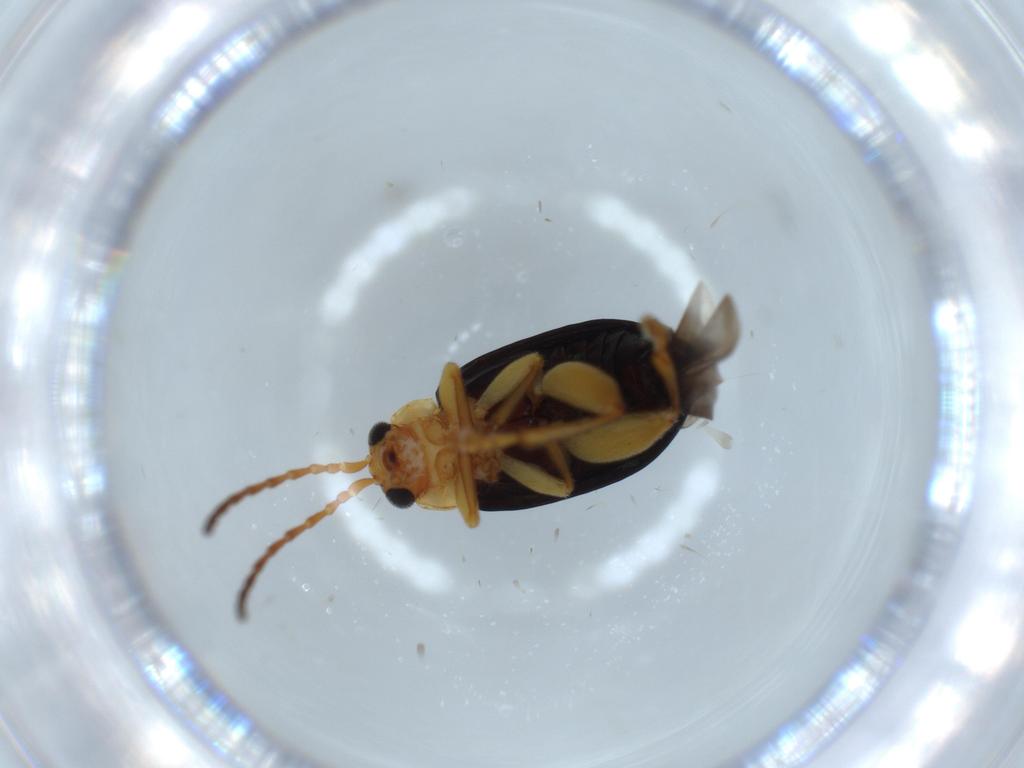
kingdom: Animalia
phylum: Arthropoda
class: Insecta
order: Coleoptera
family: Chrysomelidae
